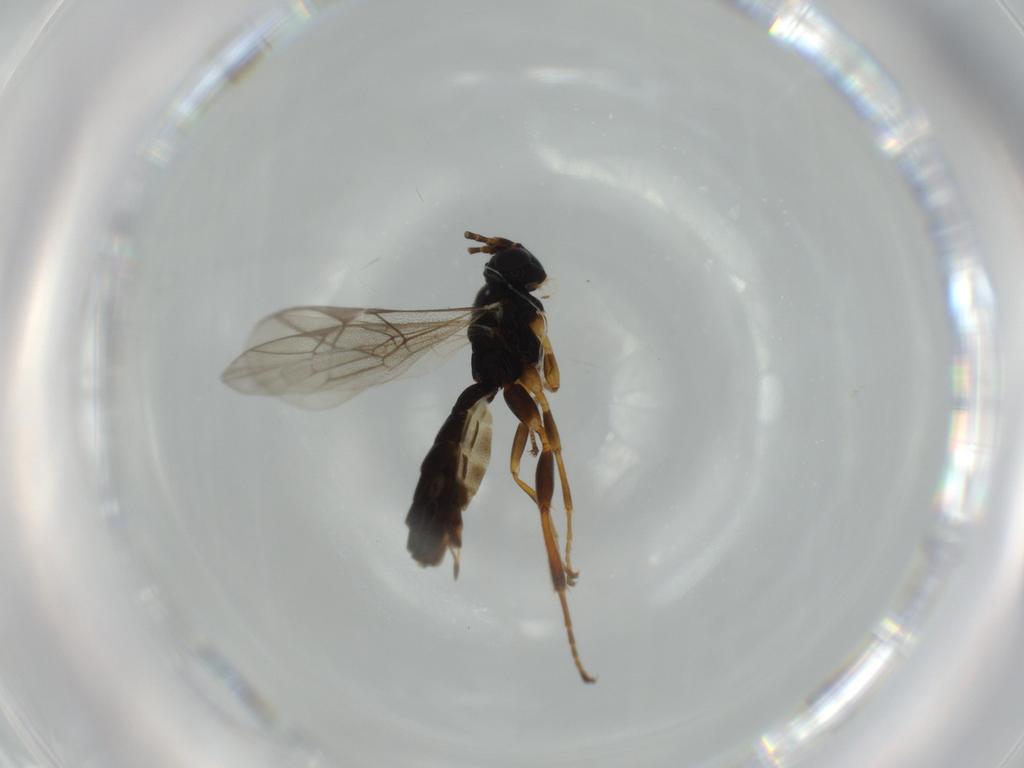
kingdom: Animalia
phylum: Arthropoda
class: Insecta
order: Hymenoptera
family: Ichneumonidae
